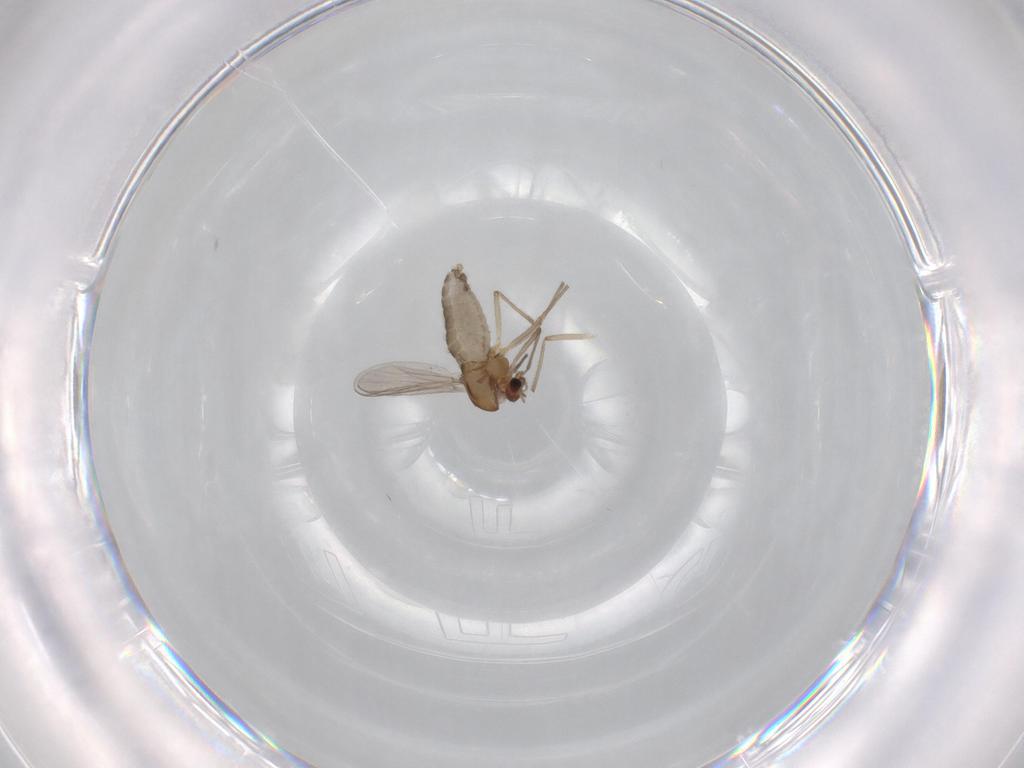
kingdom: Animalia
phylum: Arthropoda
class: Insecta
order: Diptera
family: Chironomidae
